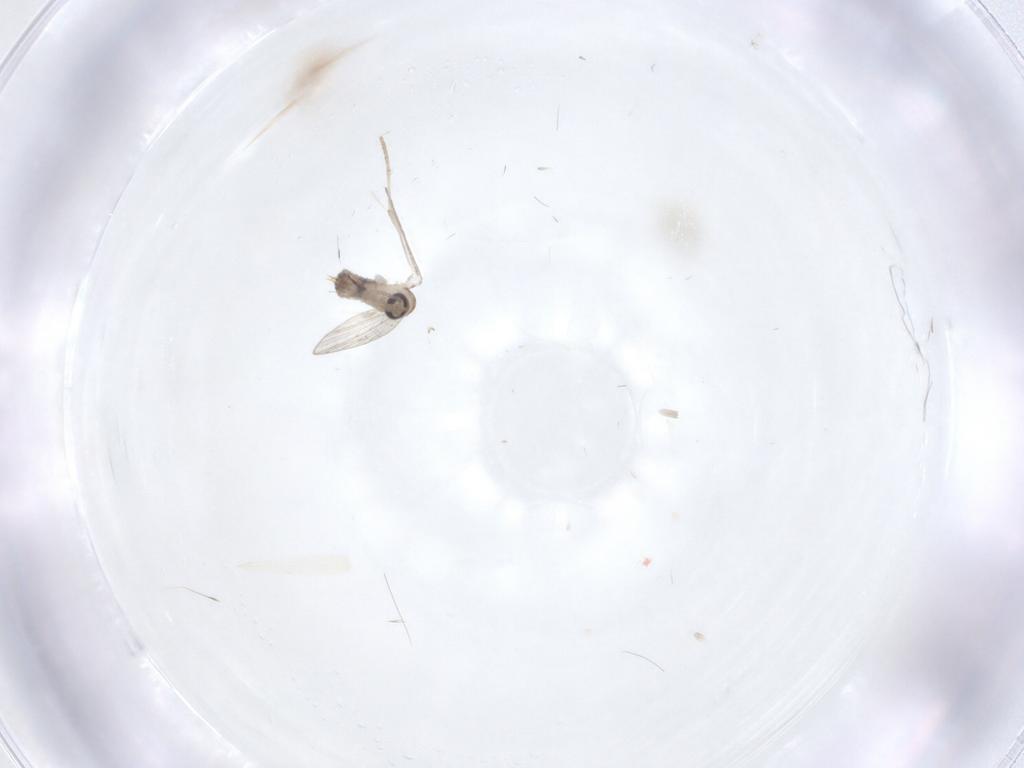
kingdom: Animalia
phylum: Arthropoda
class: Insecta
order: Diptera
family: Psychodidae
